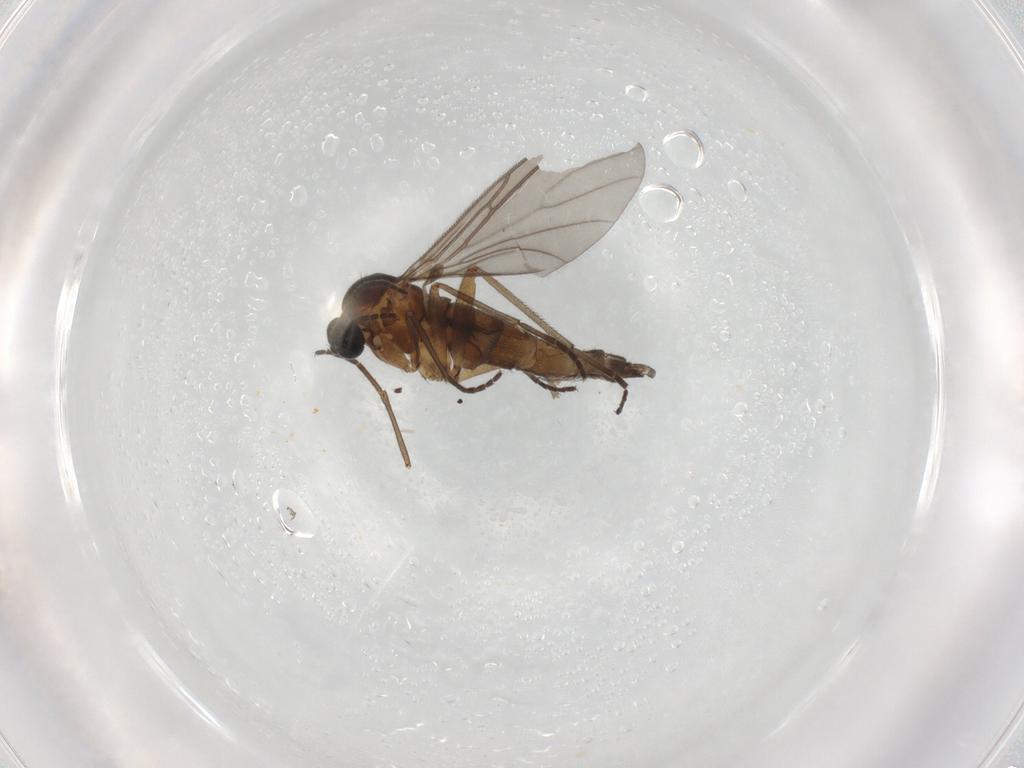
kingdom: Animalia
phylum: Arthropoda
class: Insecta
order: Diptera
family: Sciaridae
